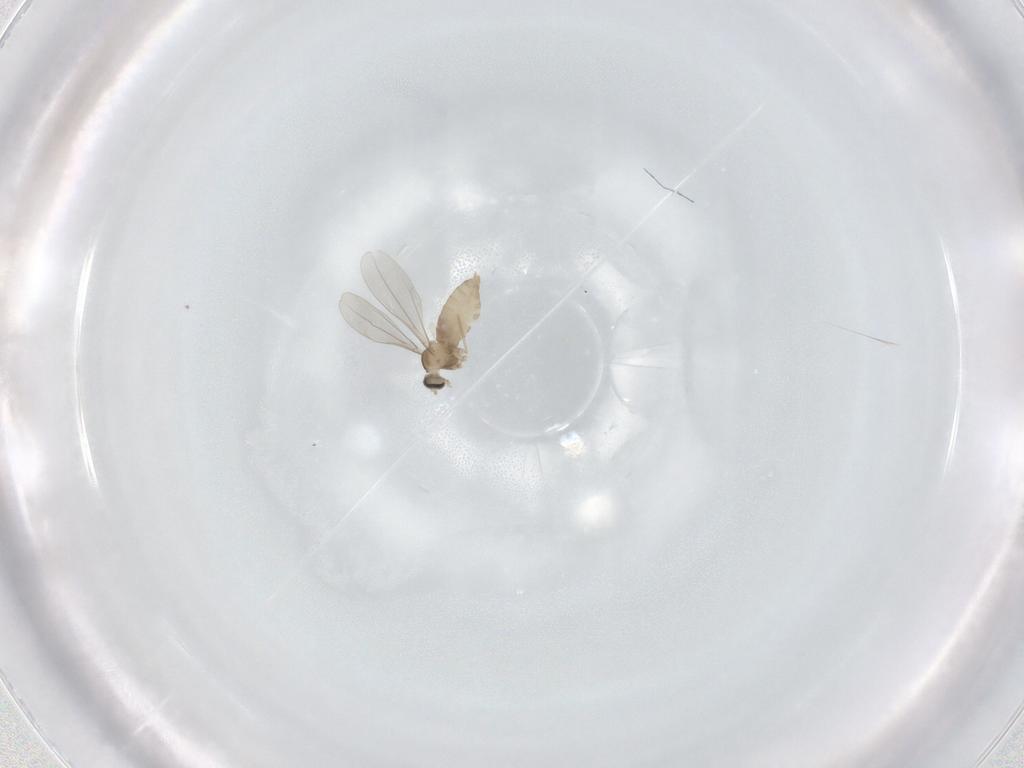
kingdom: Animalia
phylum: Arthropoda
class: Insecta
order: Diptera
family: Cecidomyiidae
